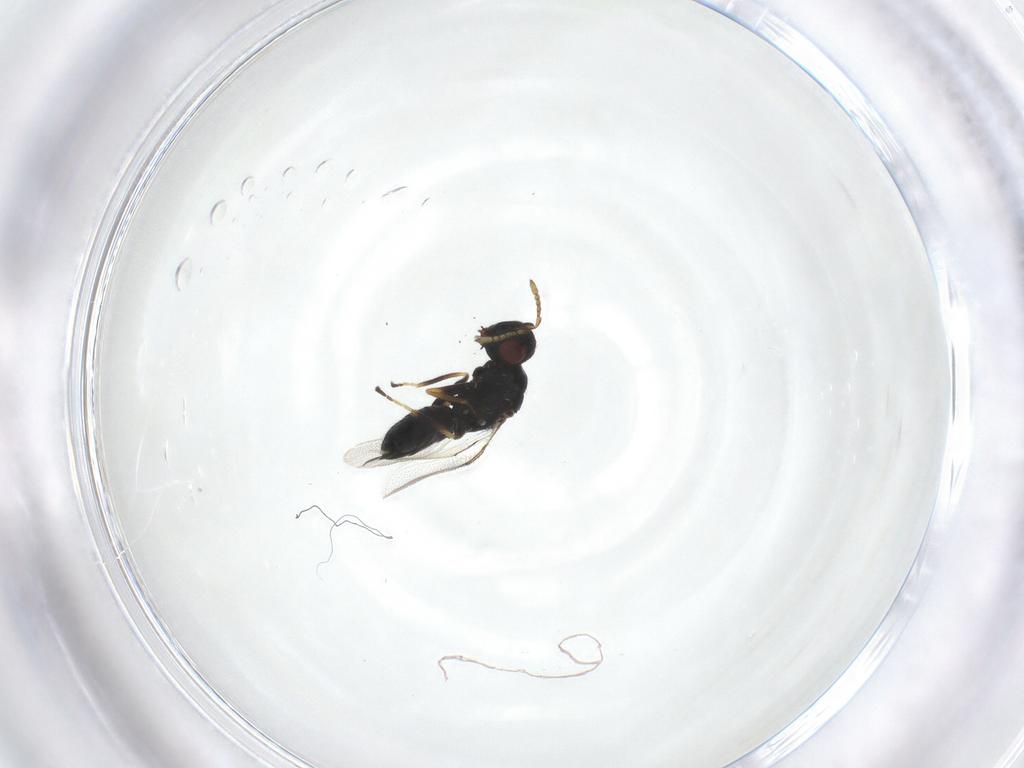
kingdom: Animalia
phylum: Arthropoda
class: Insecta
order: Hymenoptera
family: Eulophidae
